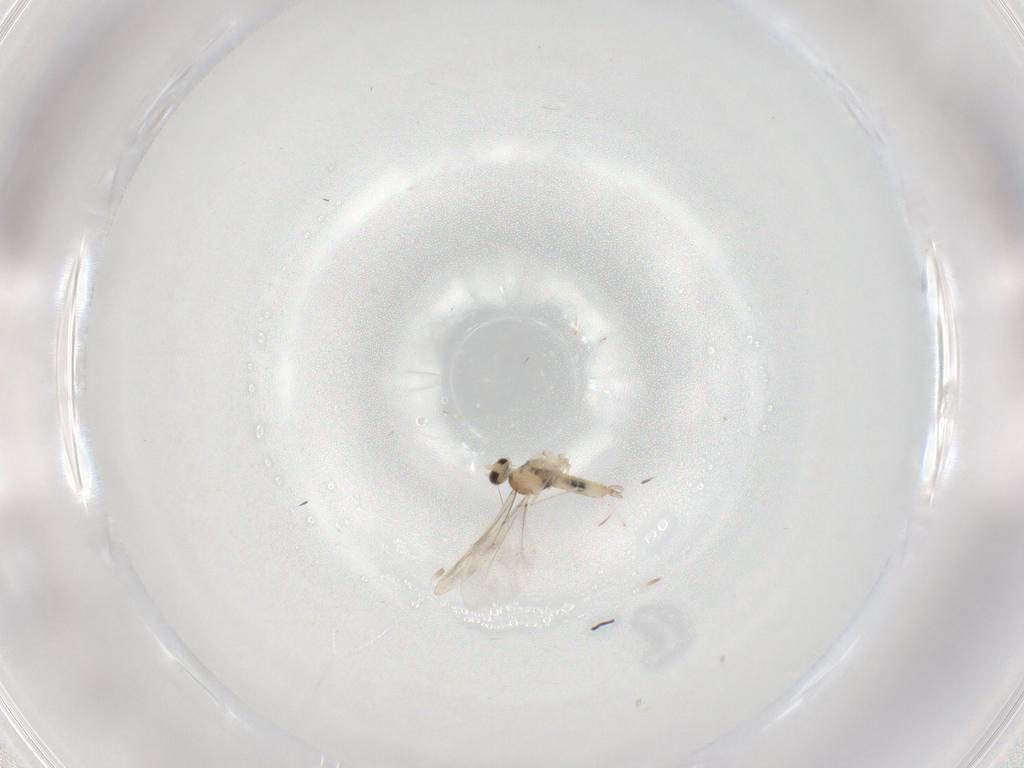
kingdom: Animalia
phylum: Arthropoda
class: Insecta
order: Diptera
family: Cecidomyiidae
